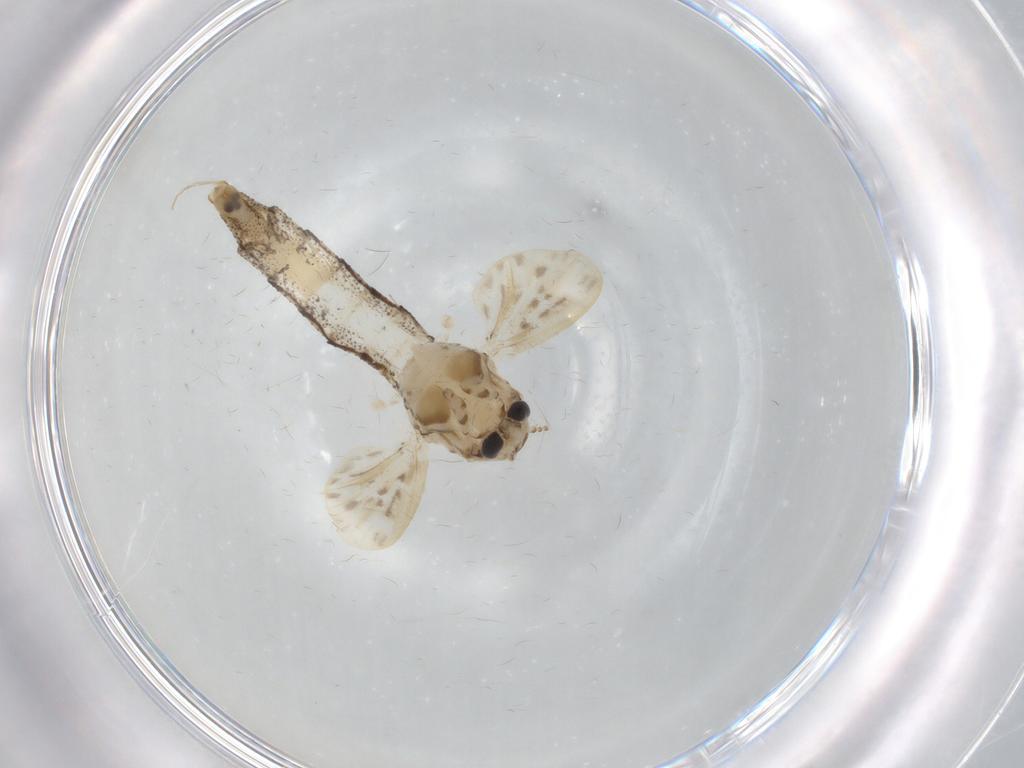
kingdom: Animalia
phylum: Arthropoda
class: Insecta
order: Diptera
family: Chaoboridae
